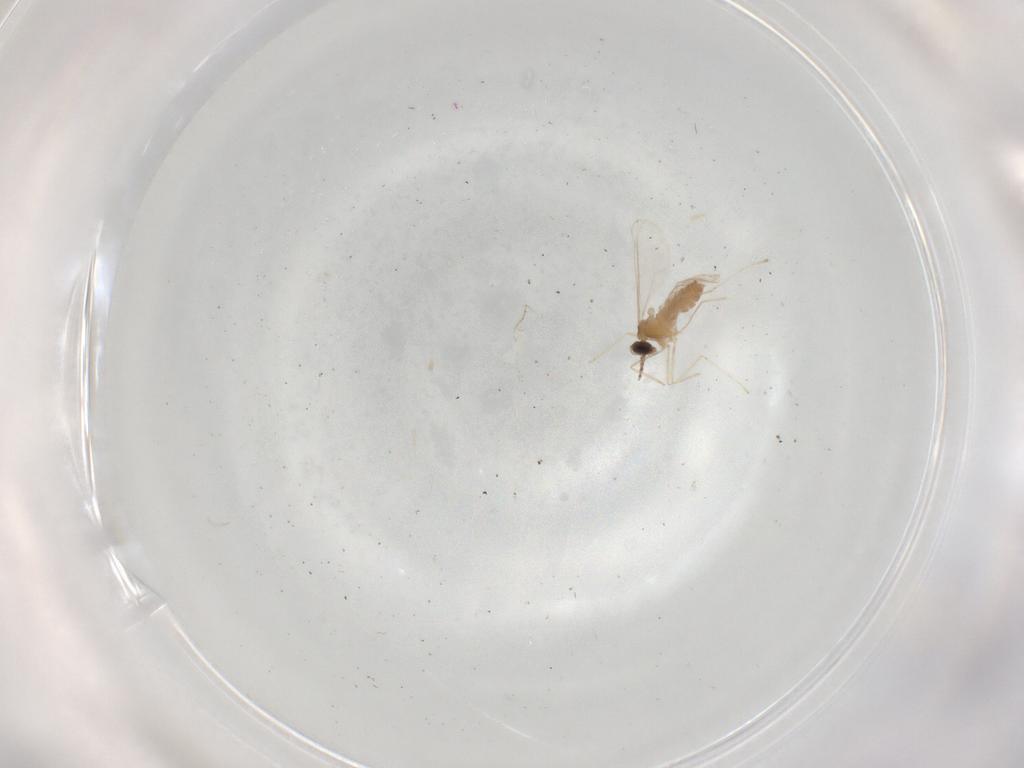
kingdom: Animalia
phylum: Arthropoda
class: Insecta
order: Diptera
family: Cecidomyiidae
